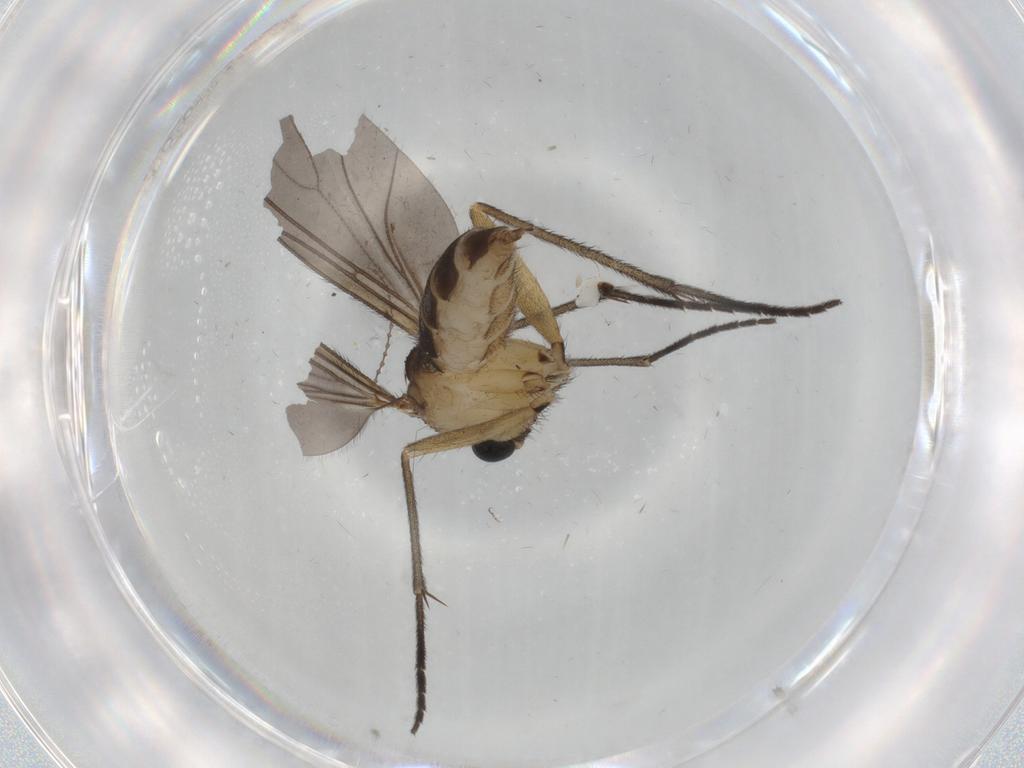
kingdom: Animalia
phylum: Arthropoda
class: Insecta
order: Diptera
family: Sciaridae
